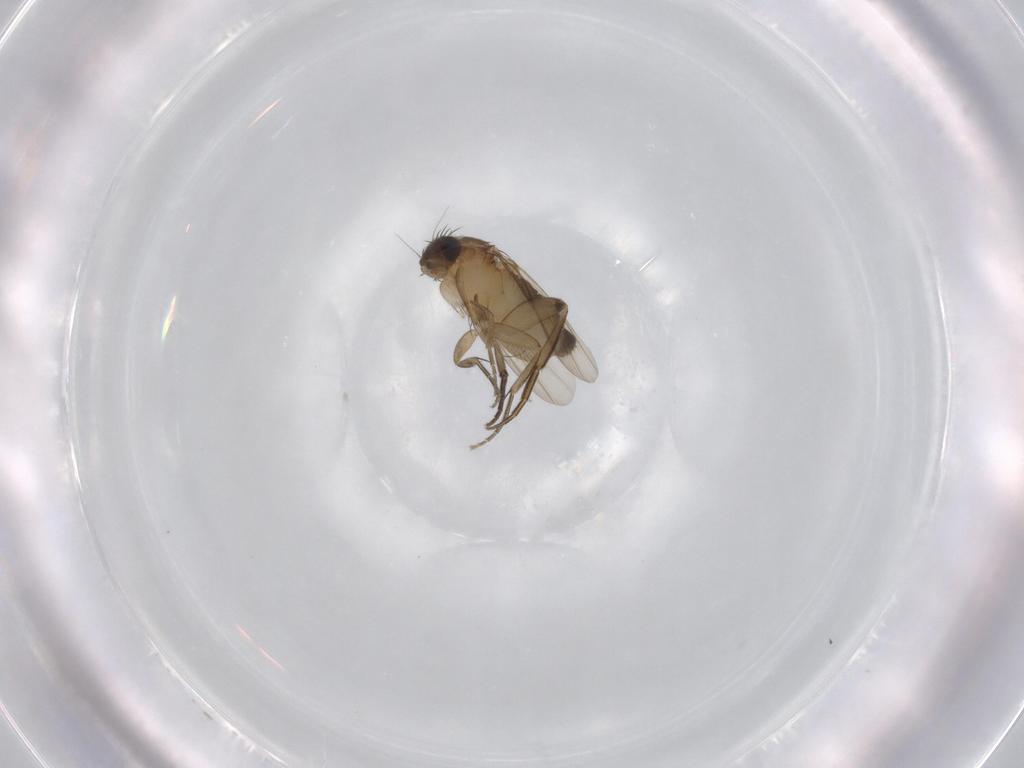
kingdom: Animalia
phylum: Arthropoda
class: Insecta
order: Diptera
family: Phoridae
